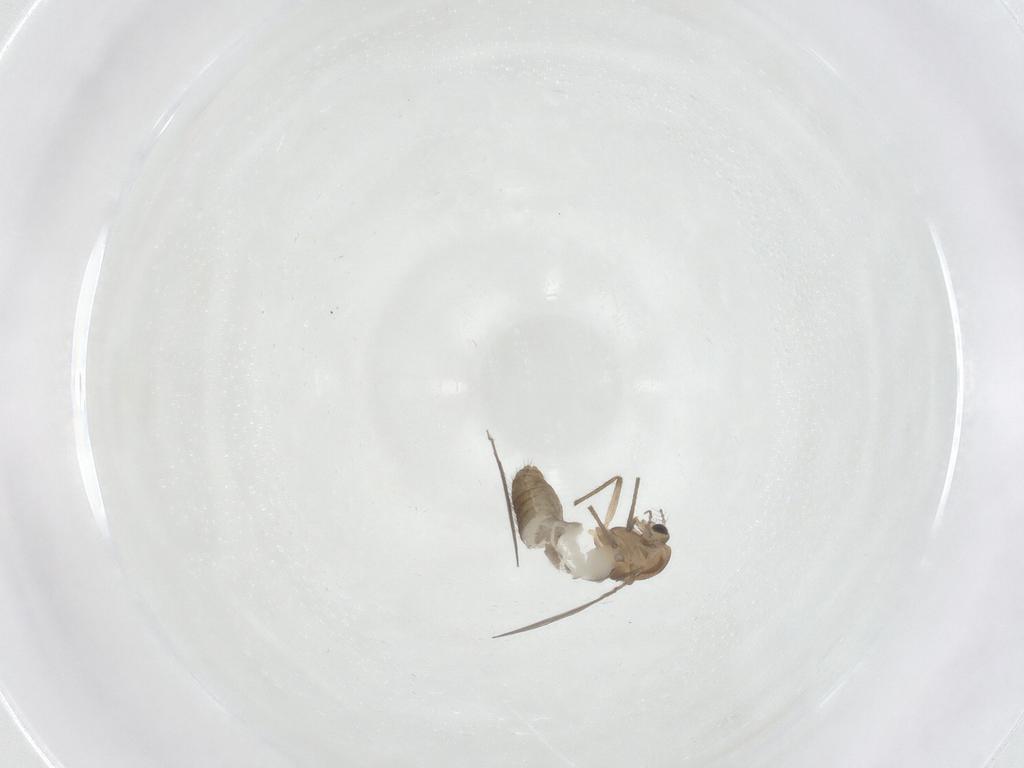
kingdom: Animalia
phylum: Arthropoda
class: Insecta
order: Diptera
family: Chironomidae
